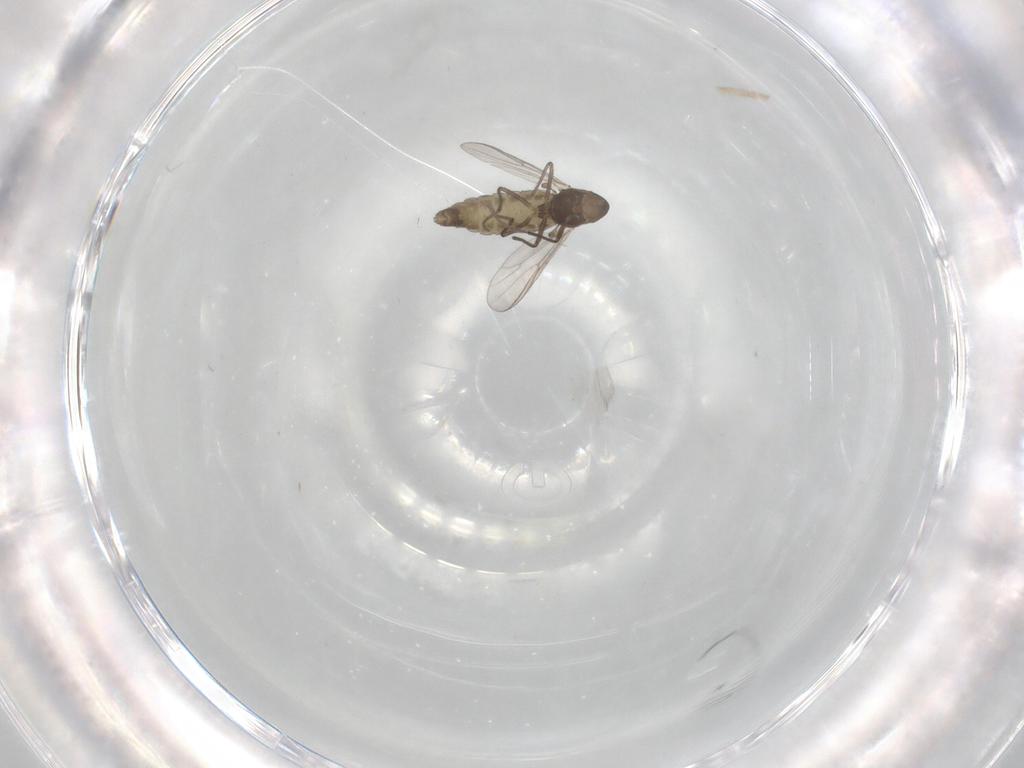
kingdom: Animalia
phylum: Arthropoda
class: Insecta
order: Diptera
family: Chironomidae
